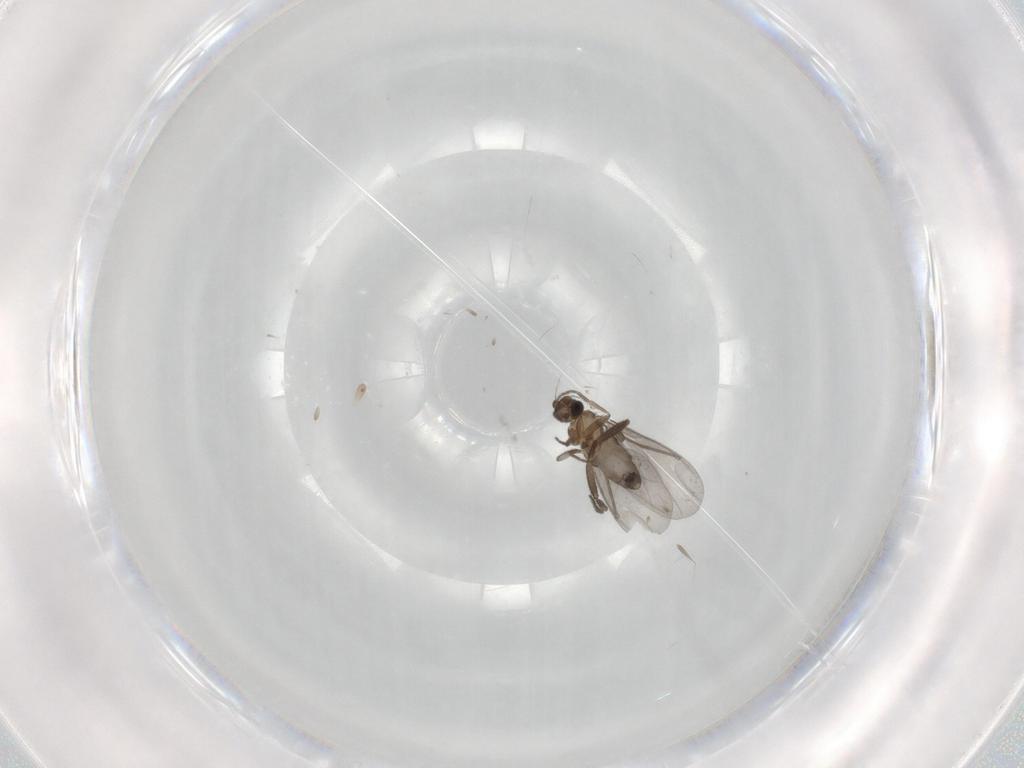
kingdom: Animalia
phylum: Arthropoda
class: Insecta
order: Diptera
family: Phoridae
